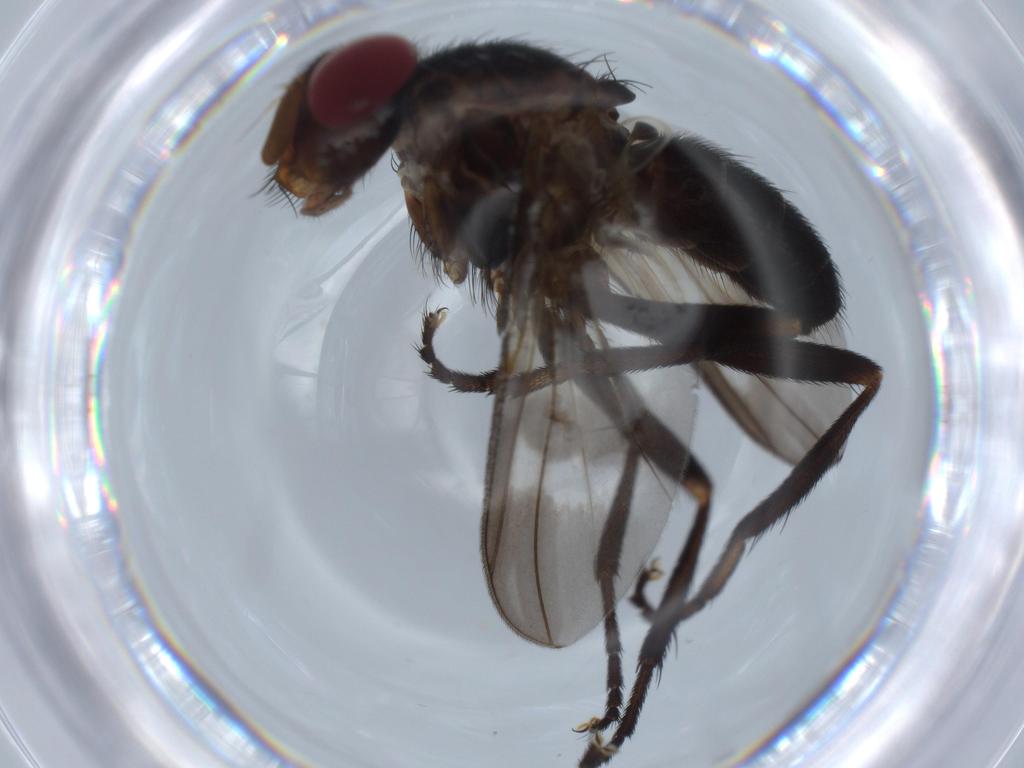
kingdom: Animalia
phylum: Arthropoda
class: Insecta
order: Diptera
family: Calliphoridae
